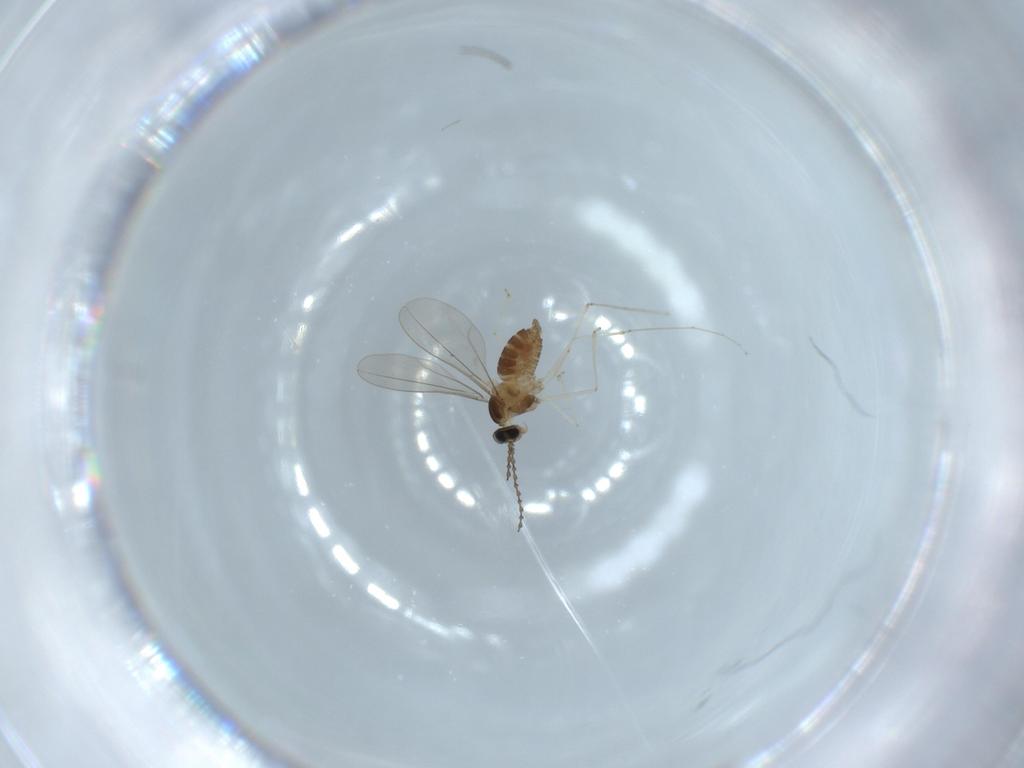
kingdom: Animalia
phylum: Arthropoda
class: Insecta
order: Diptera
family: Cecidomyiidae
